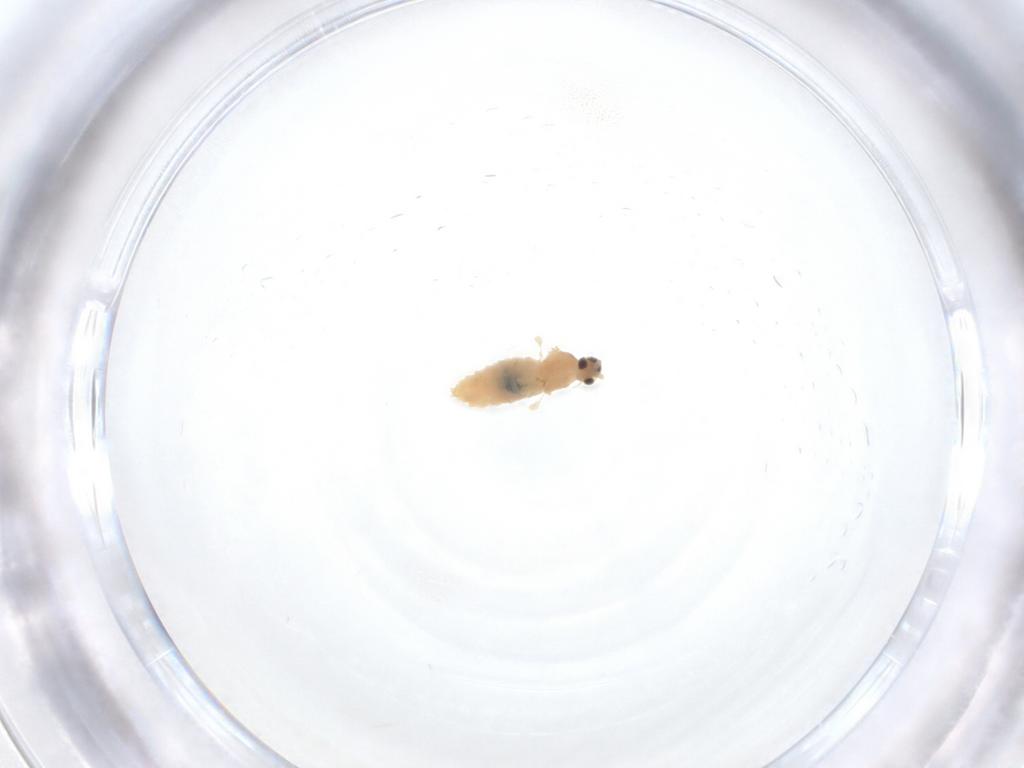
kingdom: Animalia
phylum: Arthropoda
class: Insecta
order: Diptera
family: Cecidomyiidae
